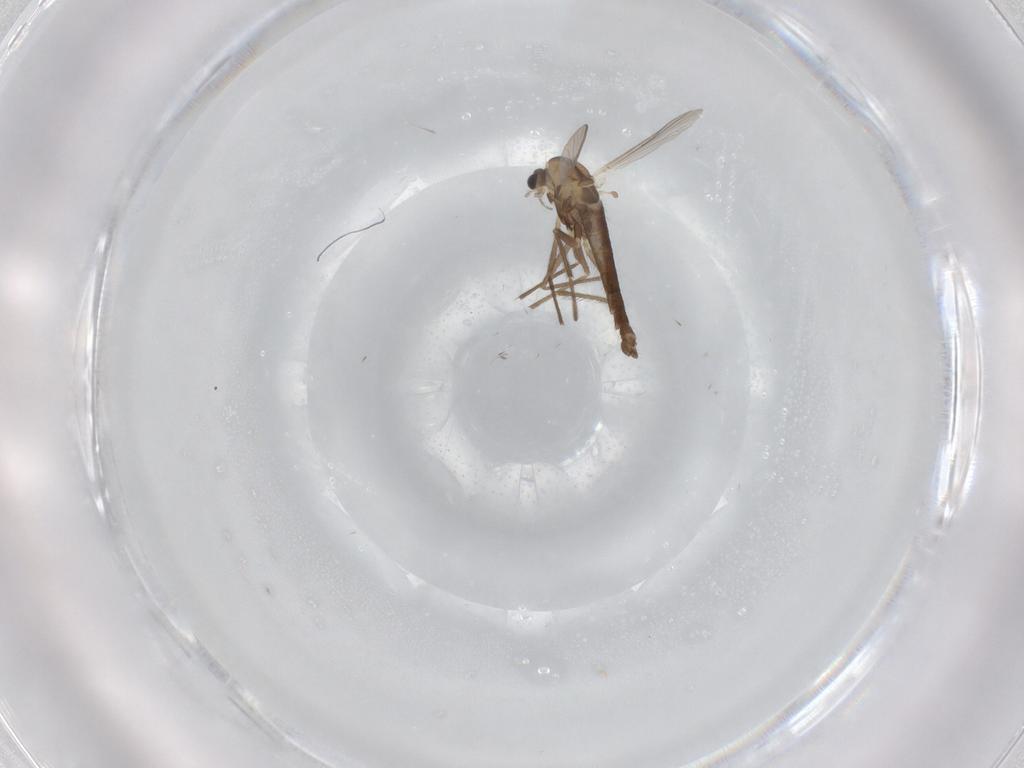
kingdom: Animalia
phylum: Arthropoda
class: Insecta
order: Diptera
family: Chironomidae
